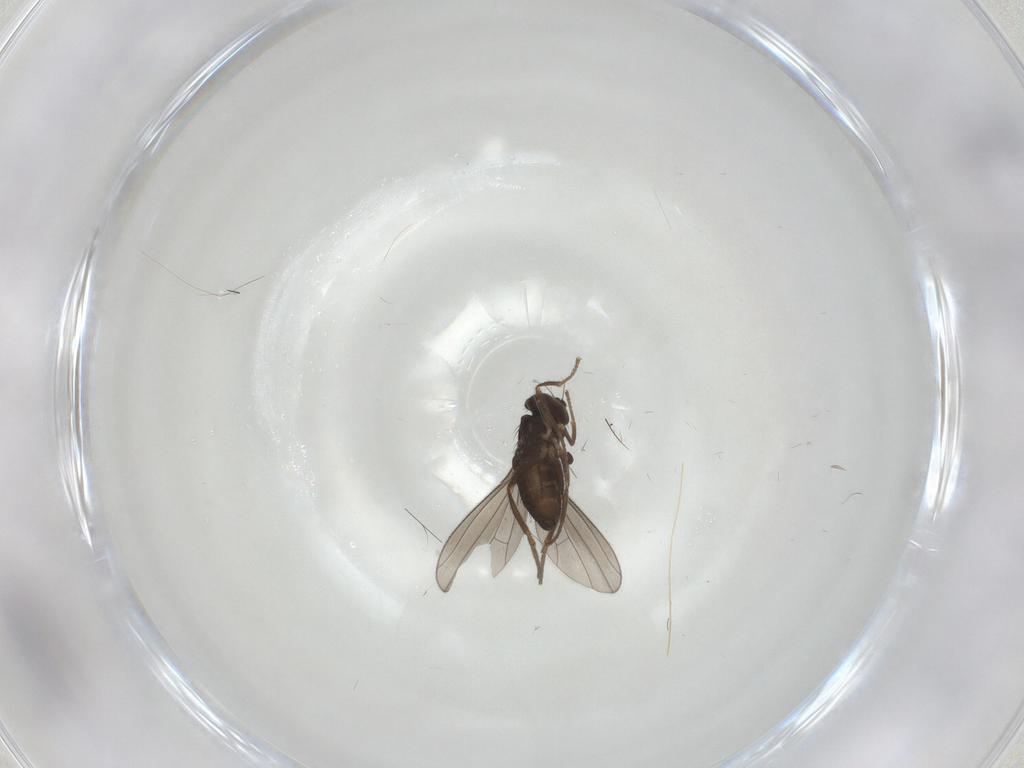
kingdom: Animalia
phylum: Arthropoda
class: Insecta
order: Diptera
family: Dolichopodidae
